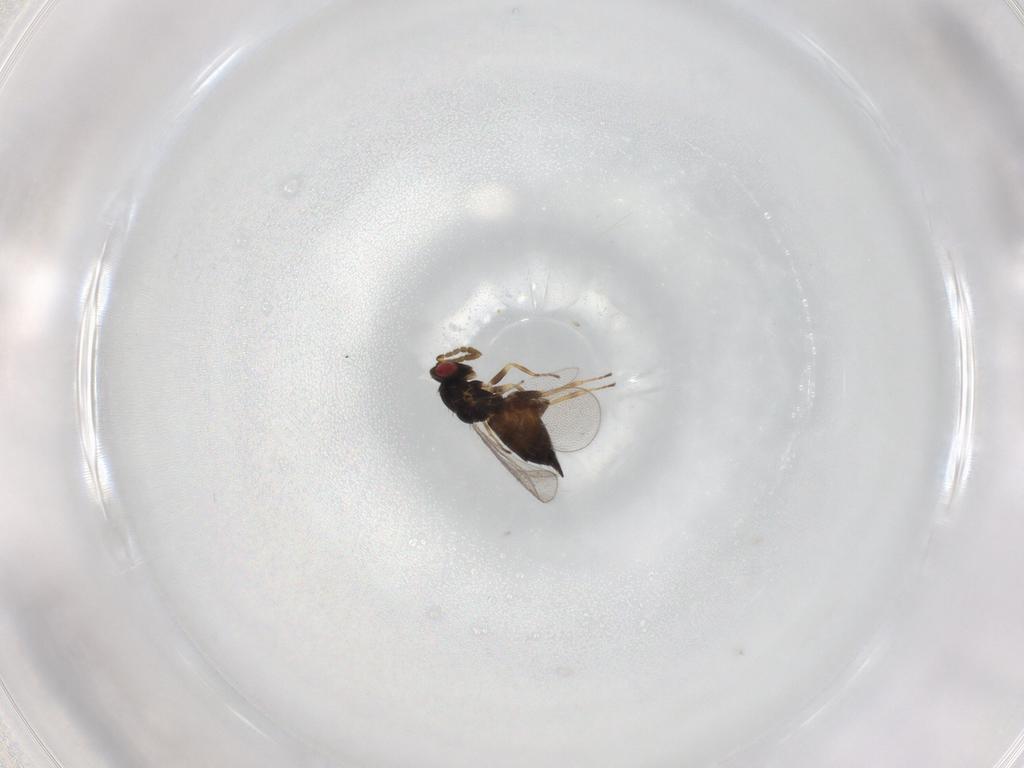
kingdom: Animalia
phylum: Arthropoda
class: Insecta
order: Hymenoptera
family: Eulophidae
